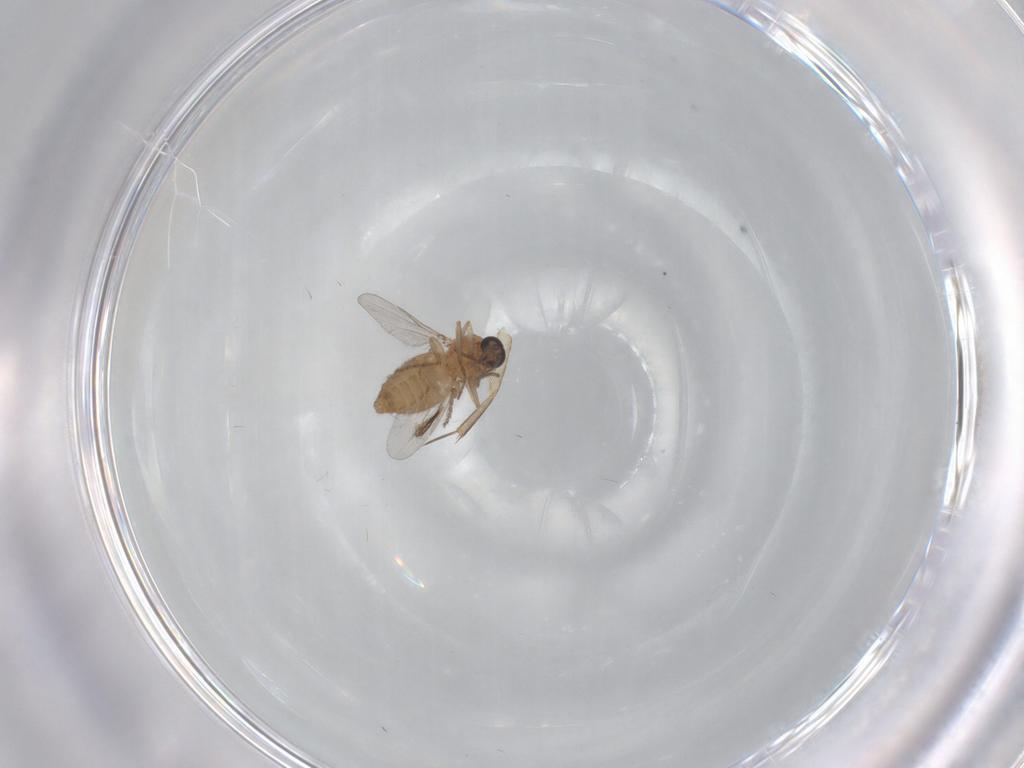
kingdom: Animalia
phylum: Arthropoda
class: Insecta
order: Diptera
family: Ceratopogonidae
